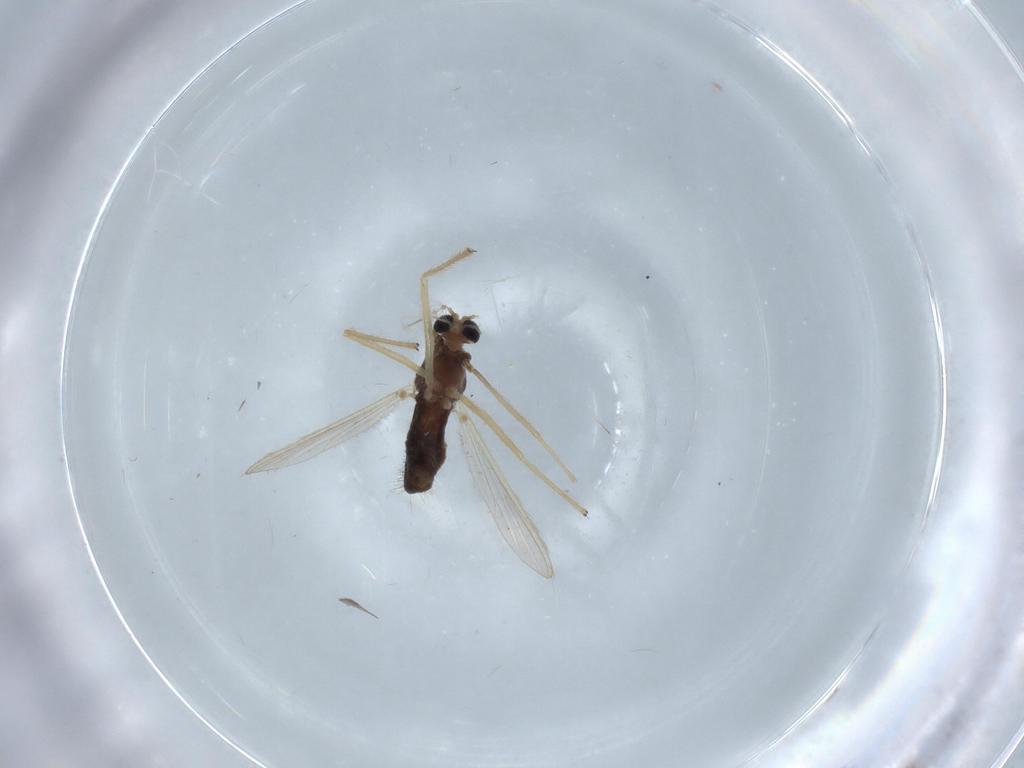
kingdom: Animalia
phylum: Arthropoda
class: Insecta
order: Diptera
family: Chironomidae
